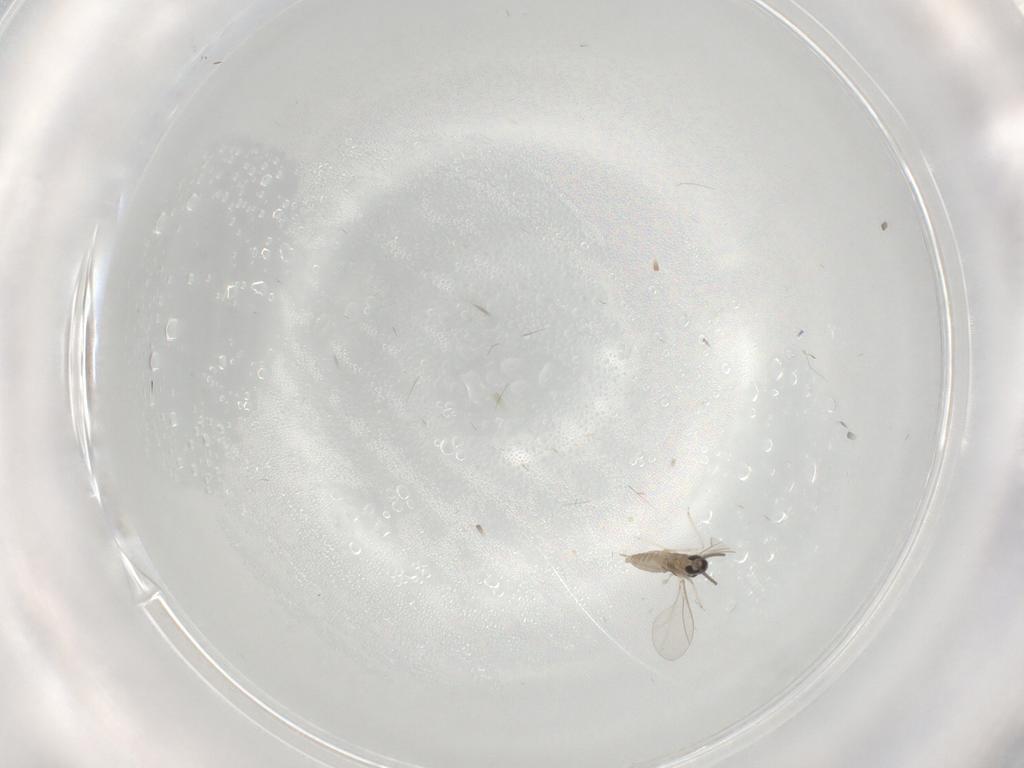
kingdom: Animalia
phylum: Arthropoda
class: Insecta
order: Diptera
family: Cecidomyiidae
